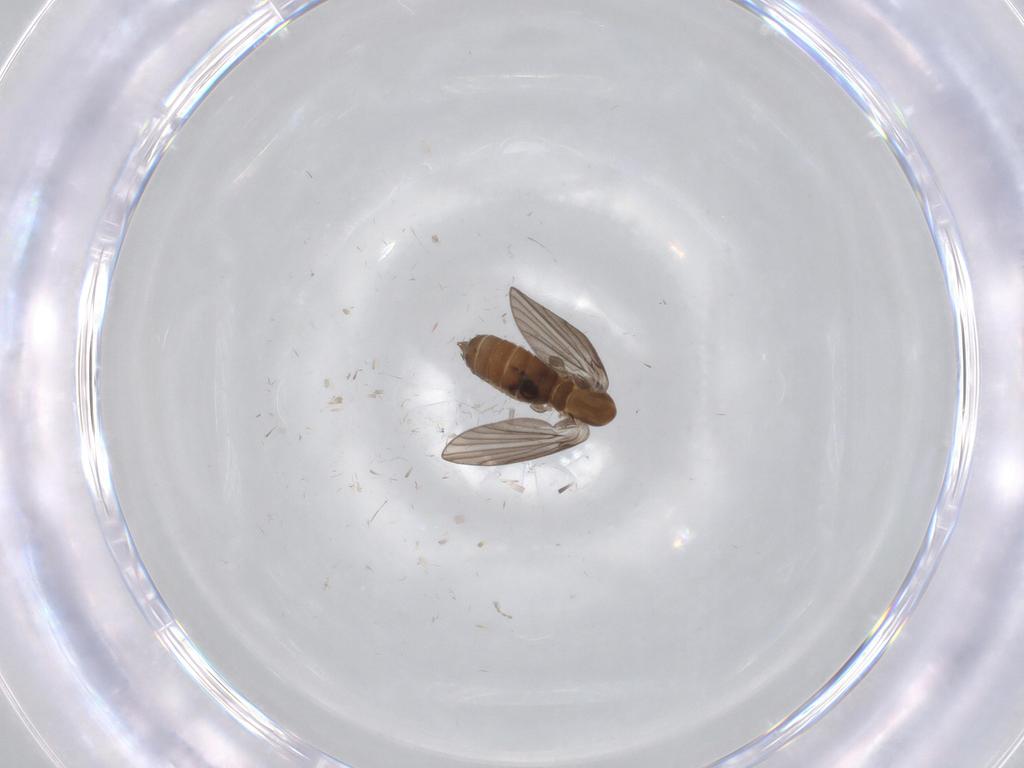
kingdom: Animalia
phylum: Arthropoda
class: Insecta
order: Diptera
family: Psychodidae
